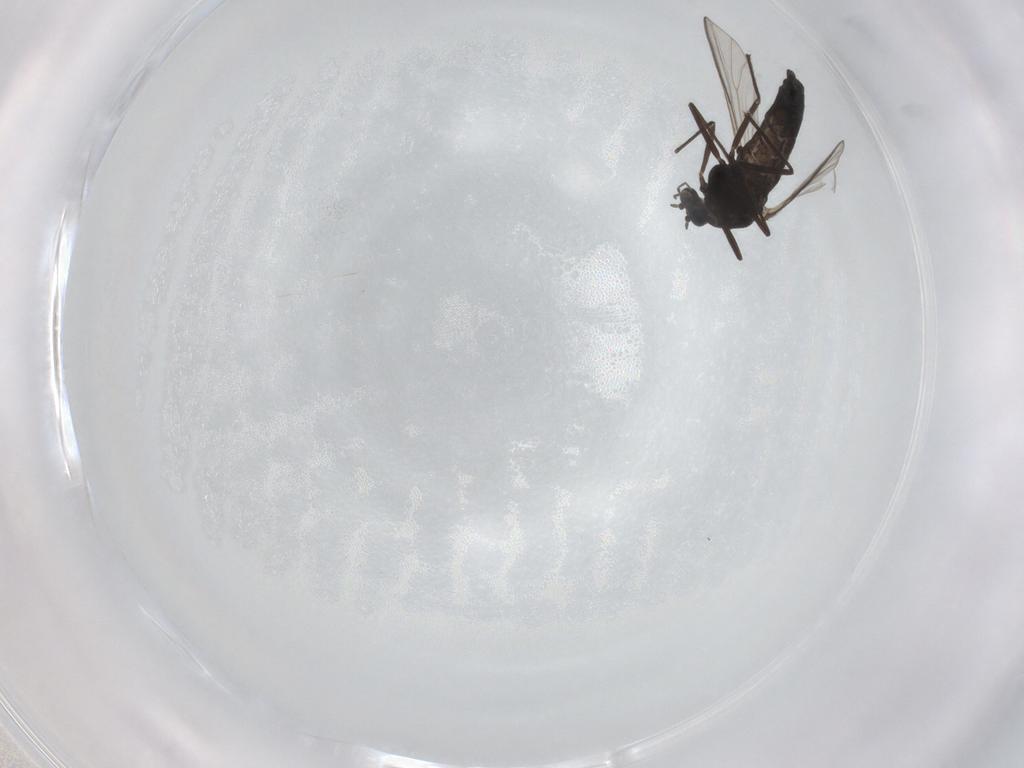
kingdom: Animalia
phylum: Arthropoda
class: Insecta
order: Diptera
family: Chironomidae
